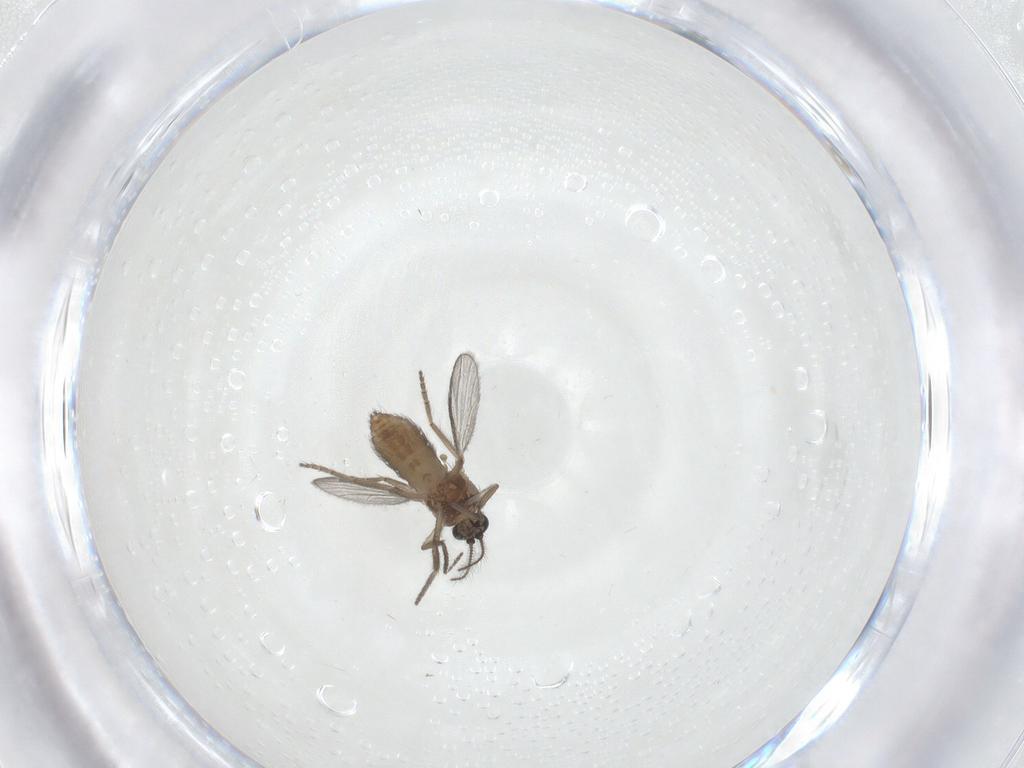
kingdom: Animalia
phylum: Arthropoda
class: Insecta
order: Diptera
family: Ceratopogonidae
